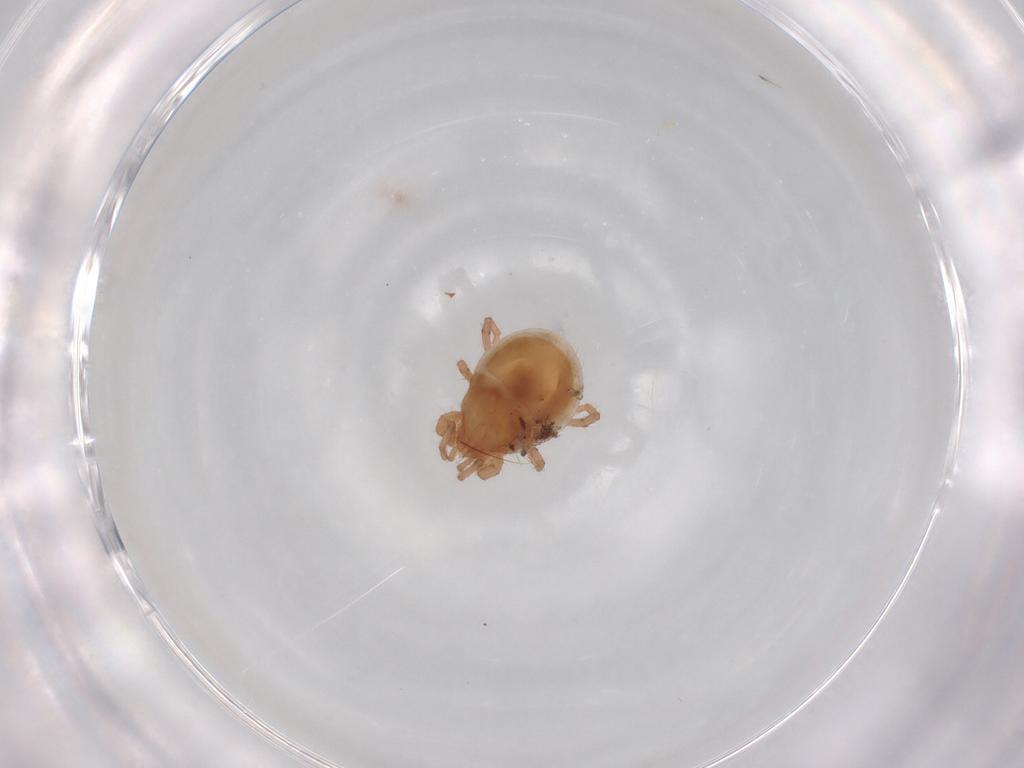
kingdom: Animalia
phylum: Arthropoda
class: Arachnida
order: Mesostigmata
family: Parasitidae
